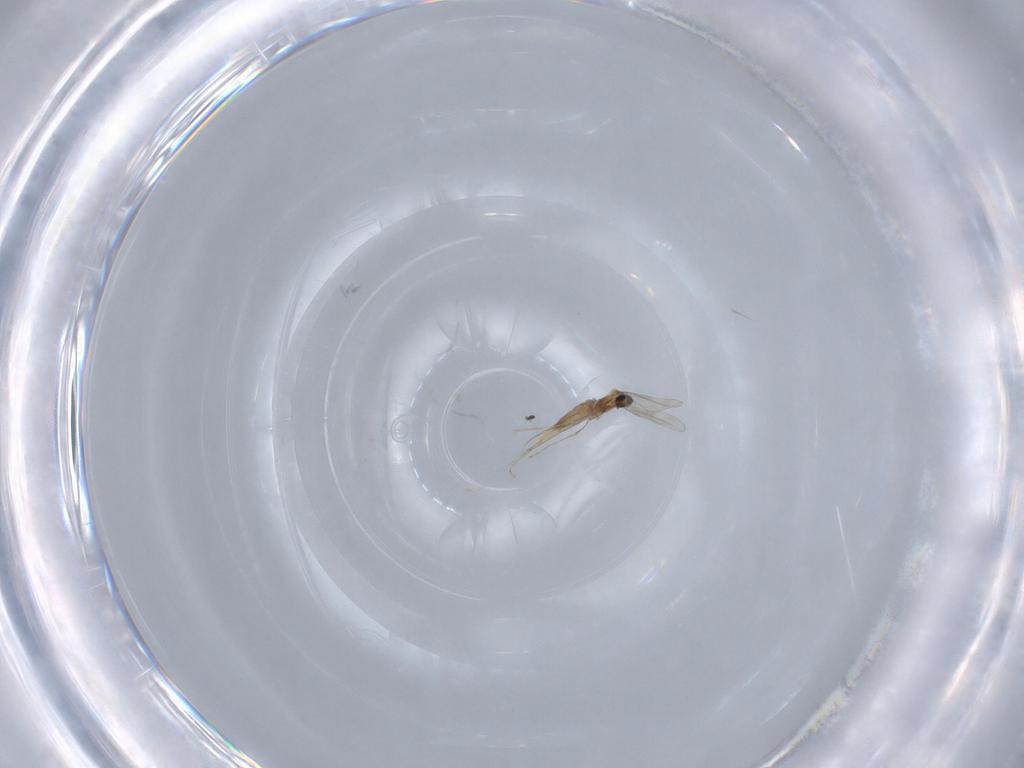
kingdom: Animalia
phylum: Arthropoda
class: Insecta
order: Diptera
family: Cecidomyiidae
